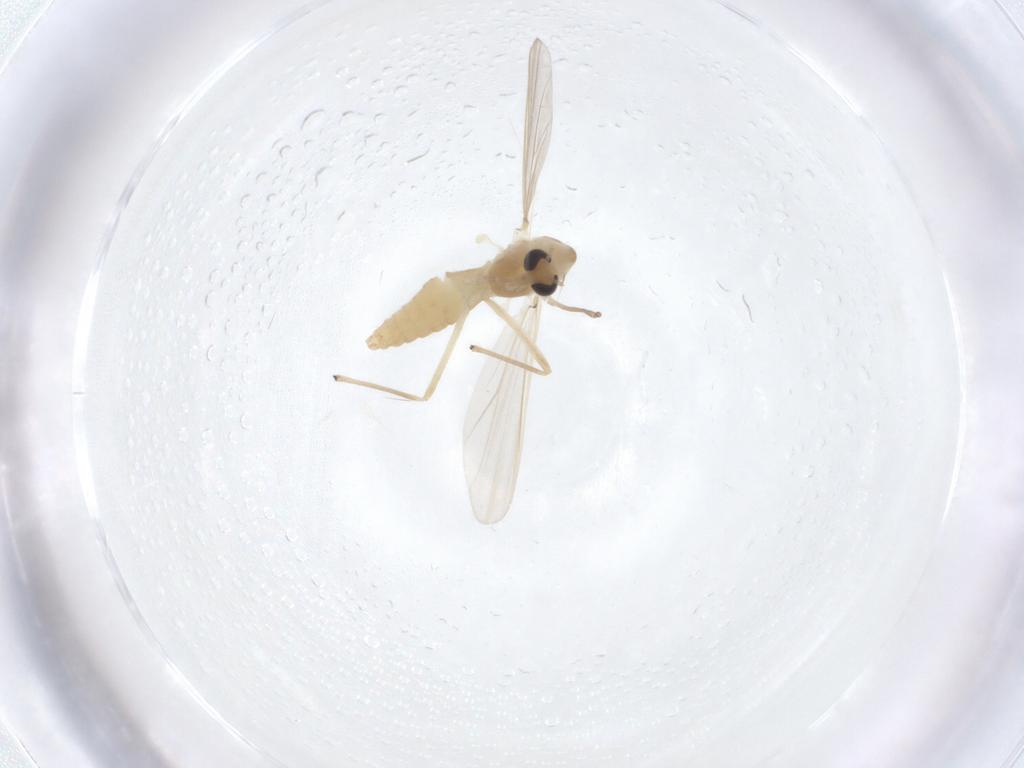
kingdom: Animalia
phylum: Arthropoda
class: Insecta
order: Diptera
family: Chironomidae
